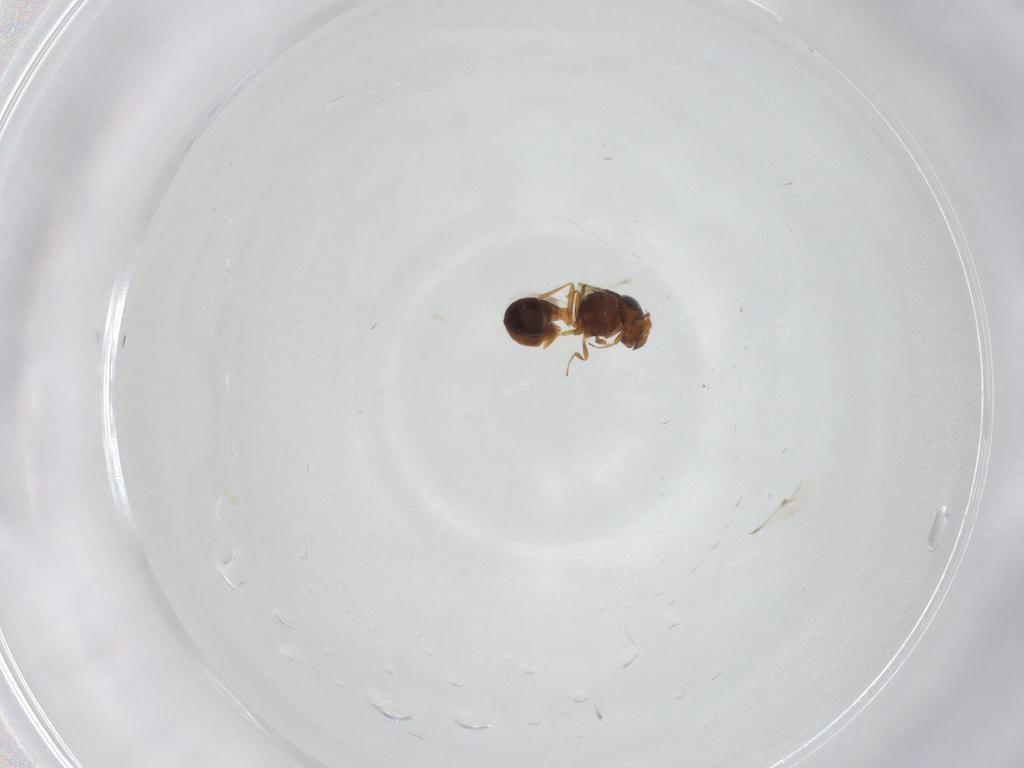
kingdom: Animalia
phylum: Arthropoda
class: Insecta
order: Hymenoptera
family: Scelionidae
